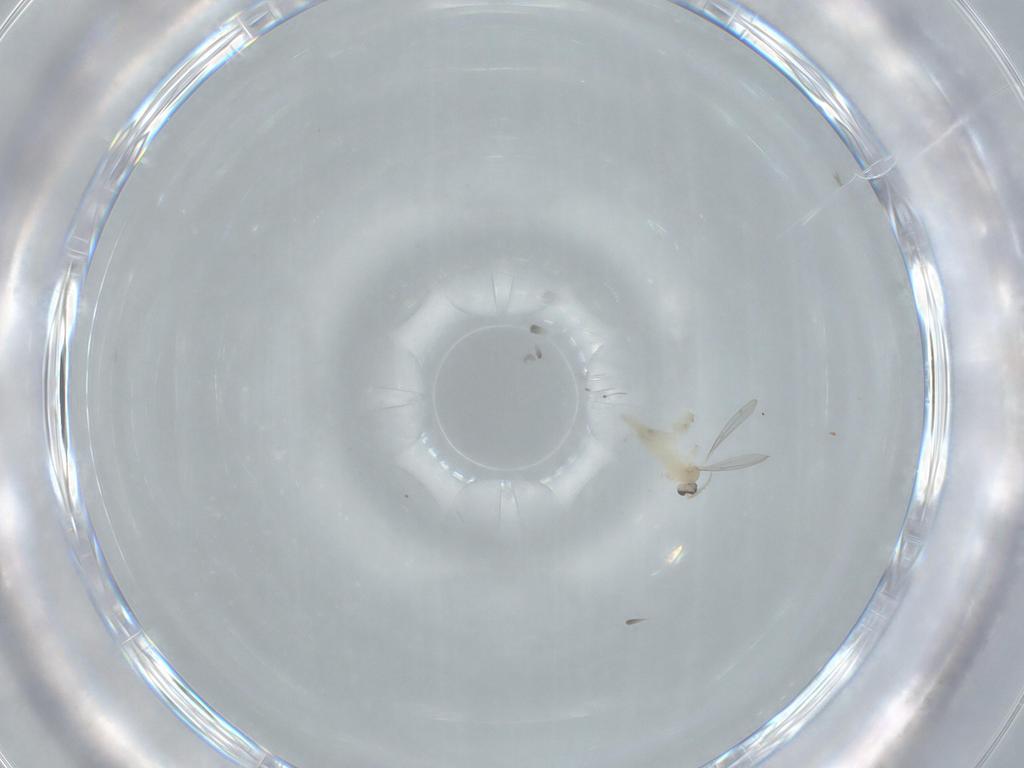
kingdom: Animalia
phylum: Arthropoda
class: Insecta
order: Diptera
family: Cecidomyiidae
